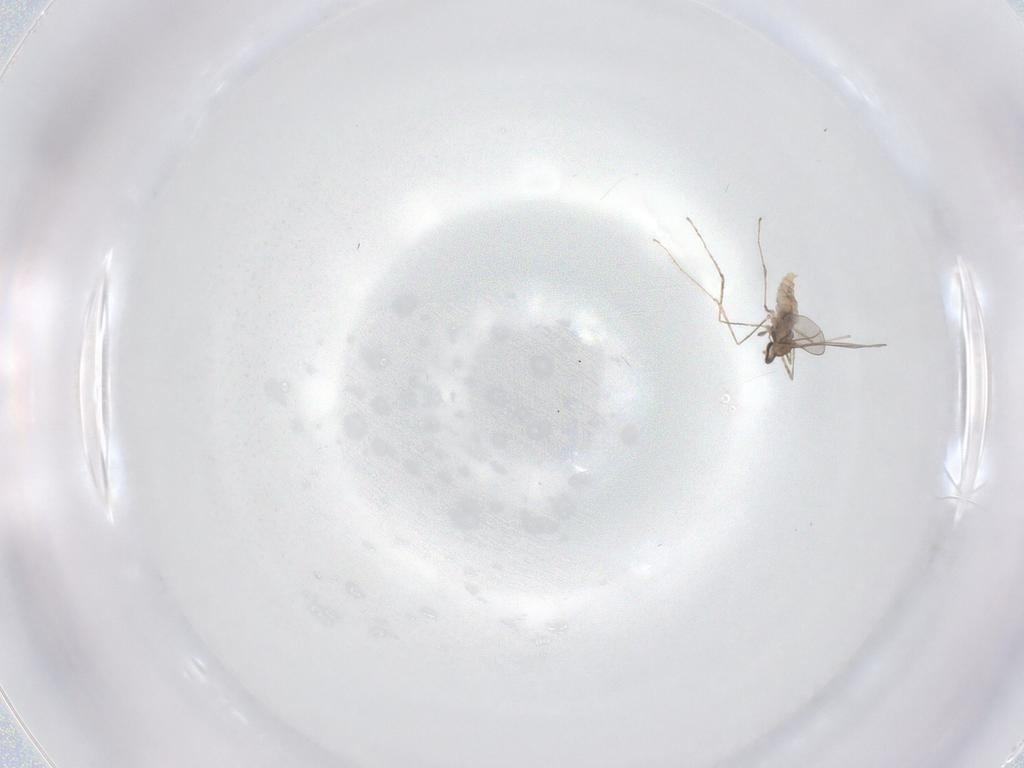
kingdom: Animalia
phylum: Arthropoda
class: Insecta
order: Diptera
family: Cecidomyiidae
